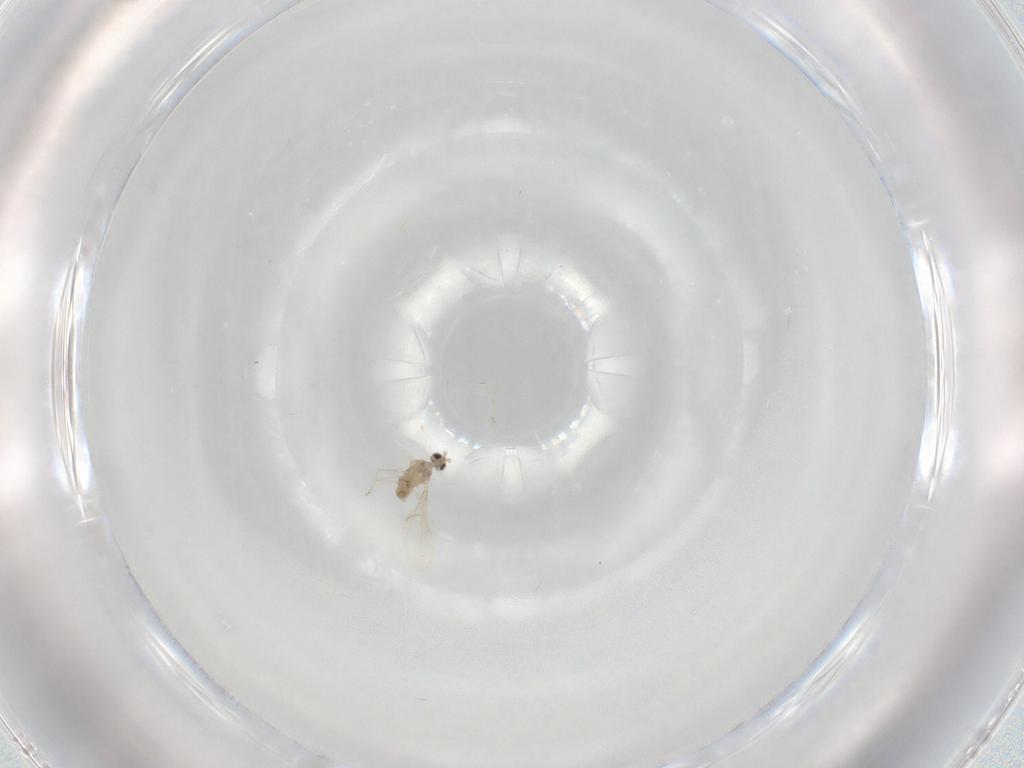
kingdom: Animalia
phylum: Arthropoda
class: Insecta
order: Diptera
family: Cecidomyiidae
